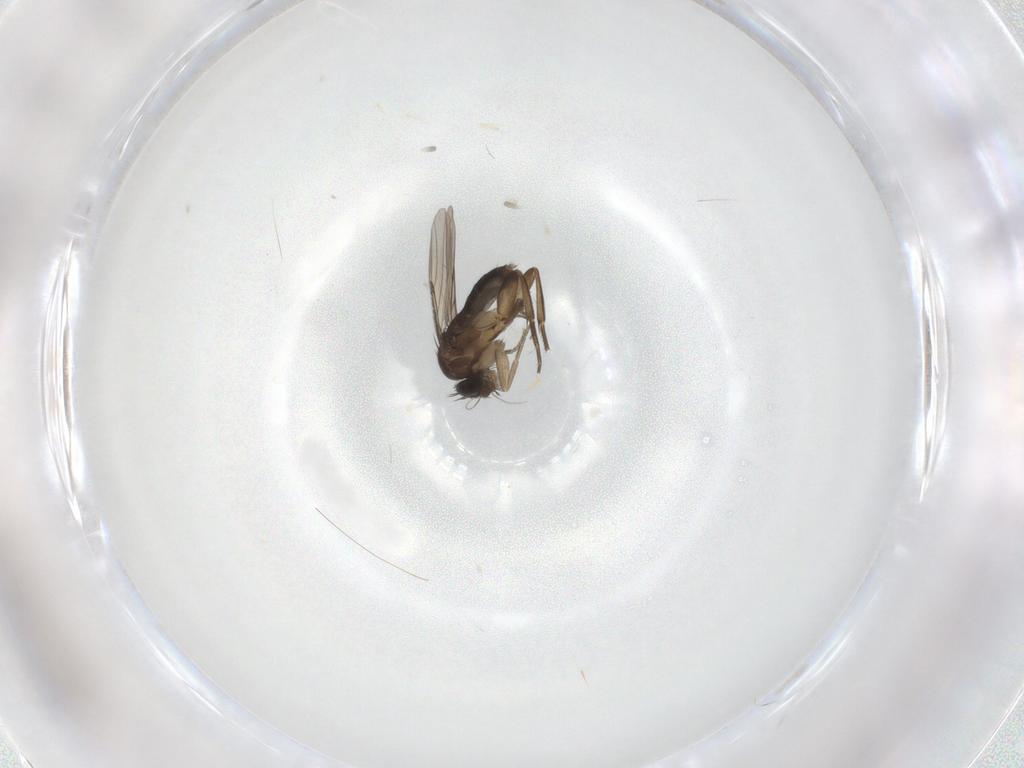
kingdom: Animalia
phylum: Arthropoda
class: Insecta
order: Diptera
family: Phoridae
